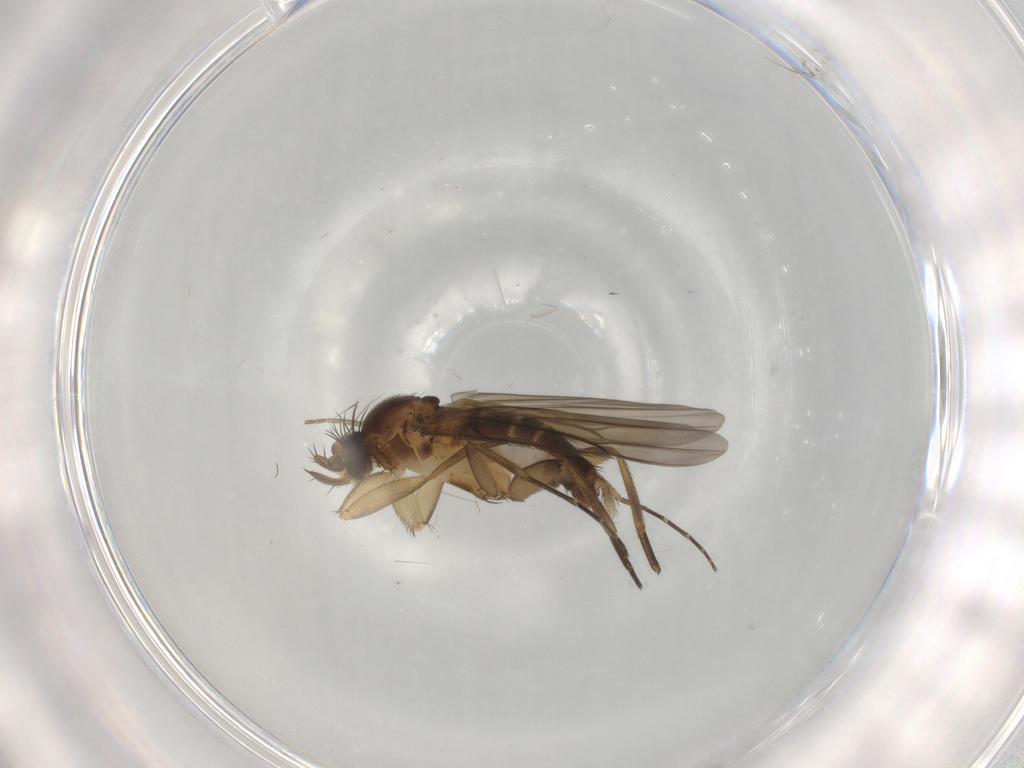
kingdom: Animalia
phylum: Arthropoda
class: Insecta
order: Diptera
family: Phoridae
